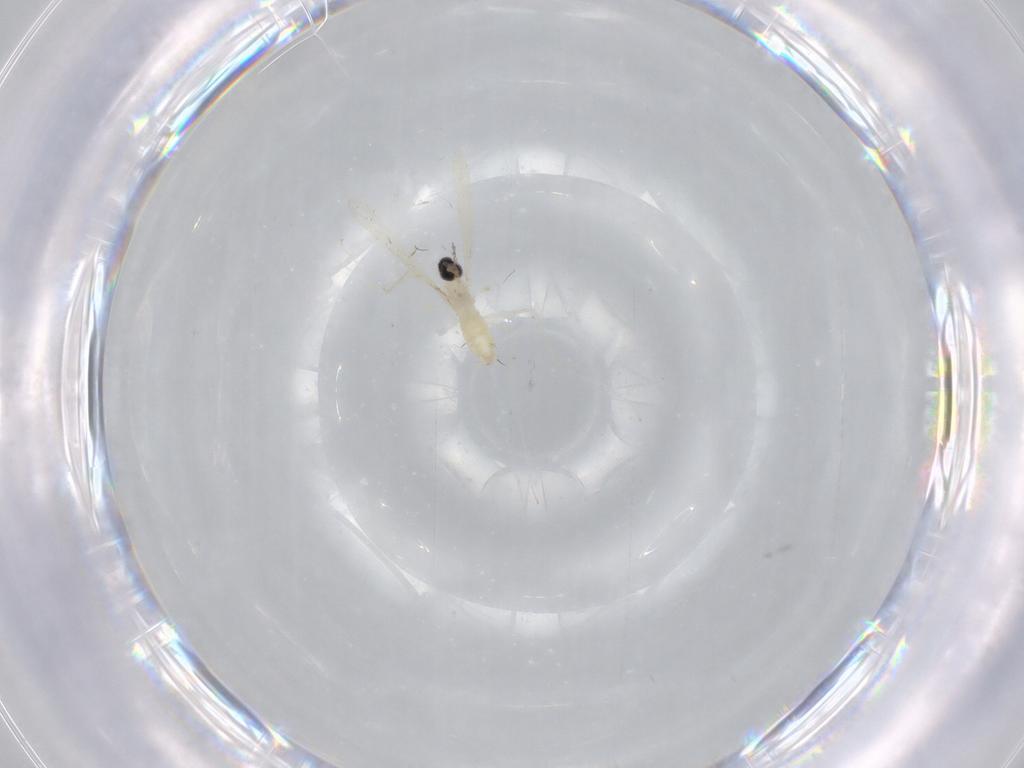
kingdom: Animalia
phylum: Arthropoda
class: Insecta
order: Diptera
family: Cecidomyiidae
